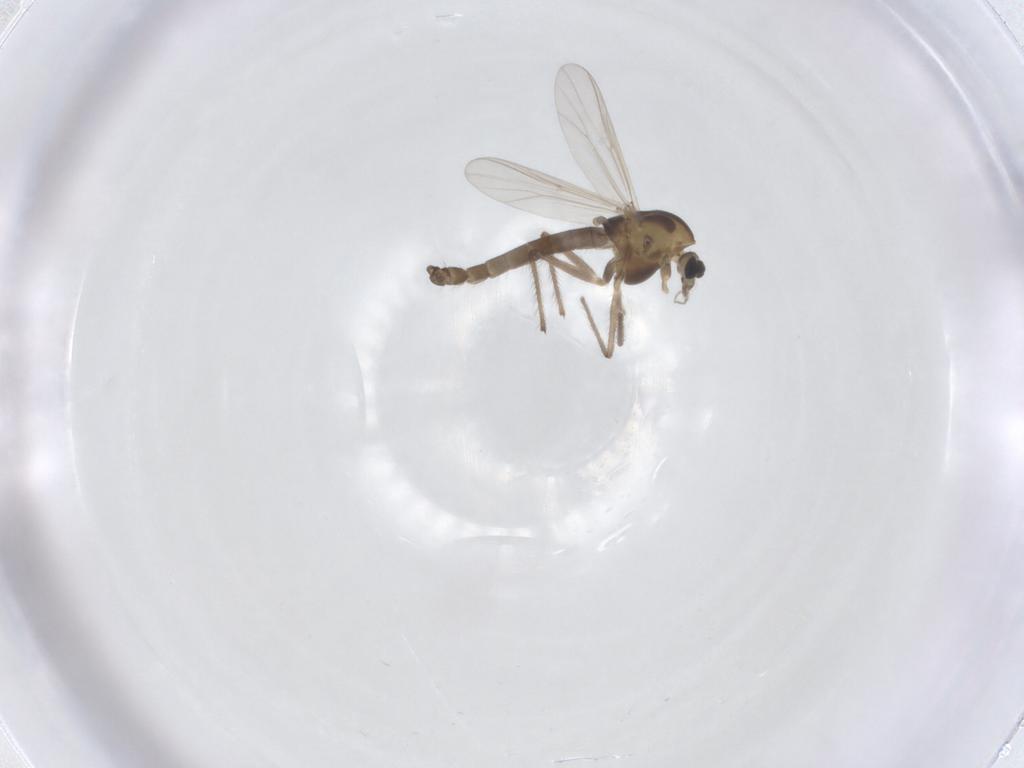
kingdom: Animalia
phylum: Arthropoda
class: Insecta
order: Diptera
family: Chironomidae
